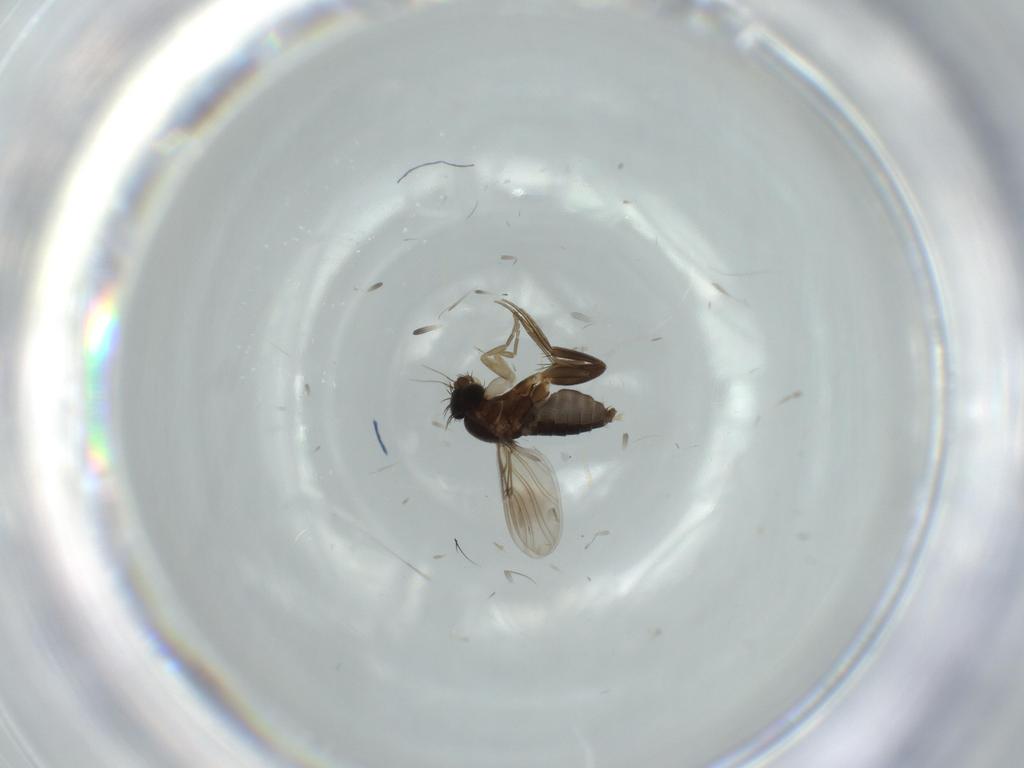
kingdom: Animalia
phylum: Arthropoda
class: Insecta
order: Diptera
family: Phoridae
